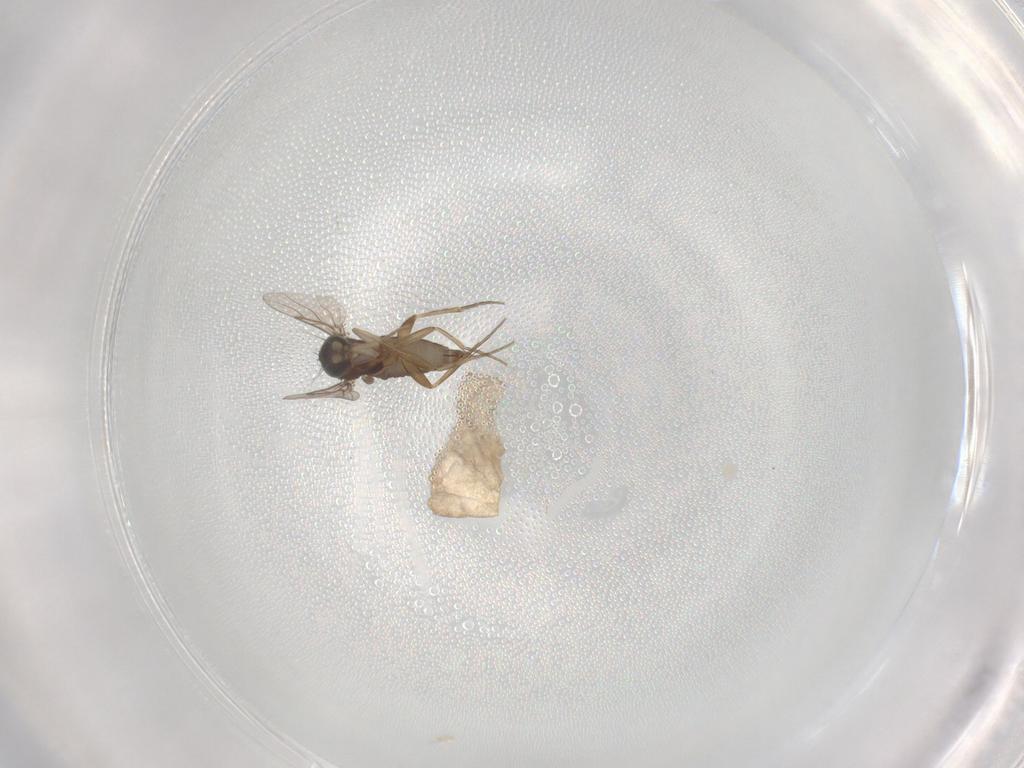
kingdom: Animalia
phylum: Arthropoda
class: Insecta
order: Diptera
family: Phoridae
